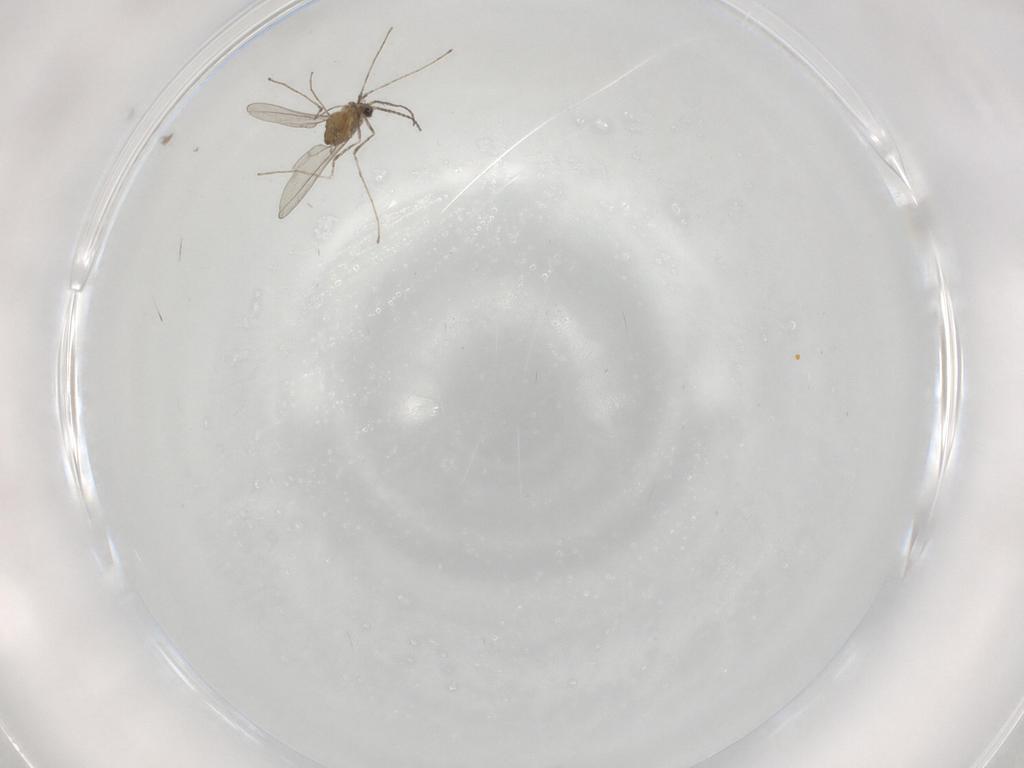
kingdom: Animalia
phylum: Arthropoda
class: Insecta
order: Diptera
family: Cecidomyiidae
